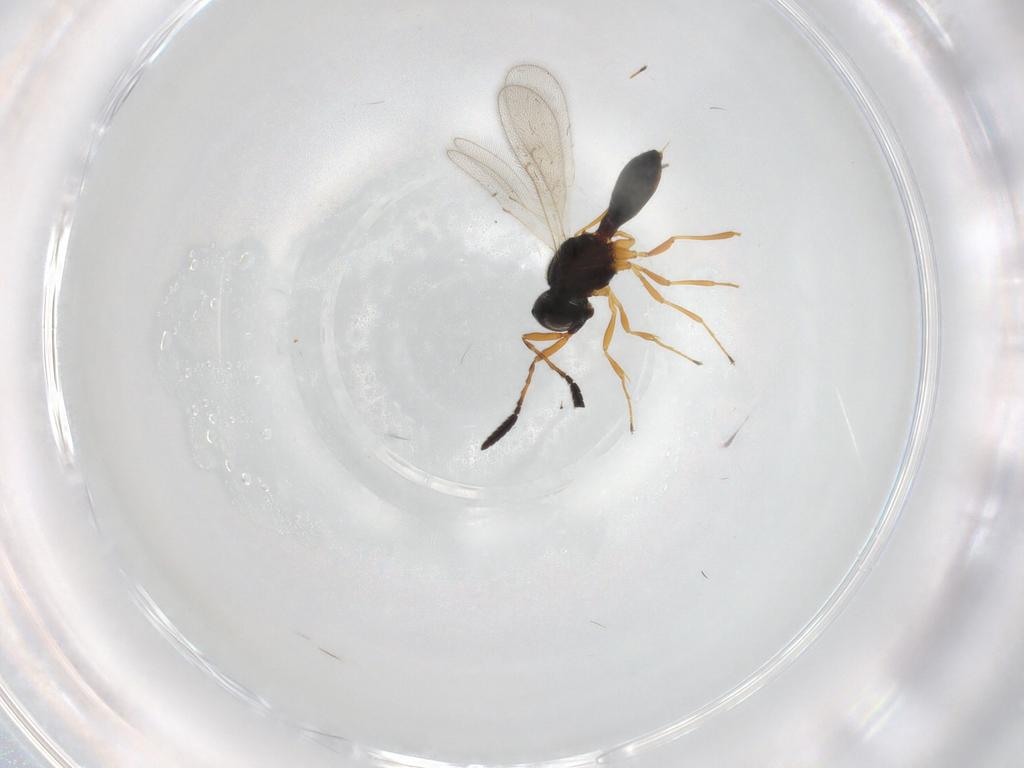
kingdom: Animalia
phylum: Arthropoda
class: Insecta
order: Hymenoptera
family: Scelionidae
